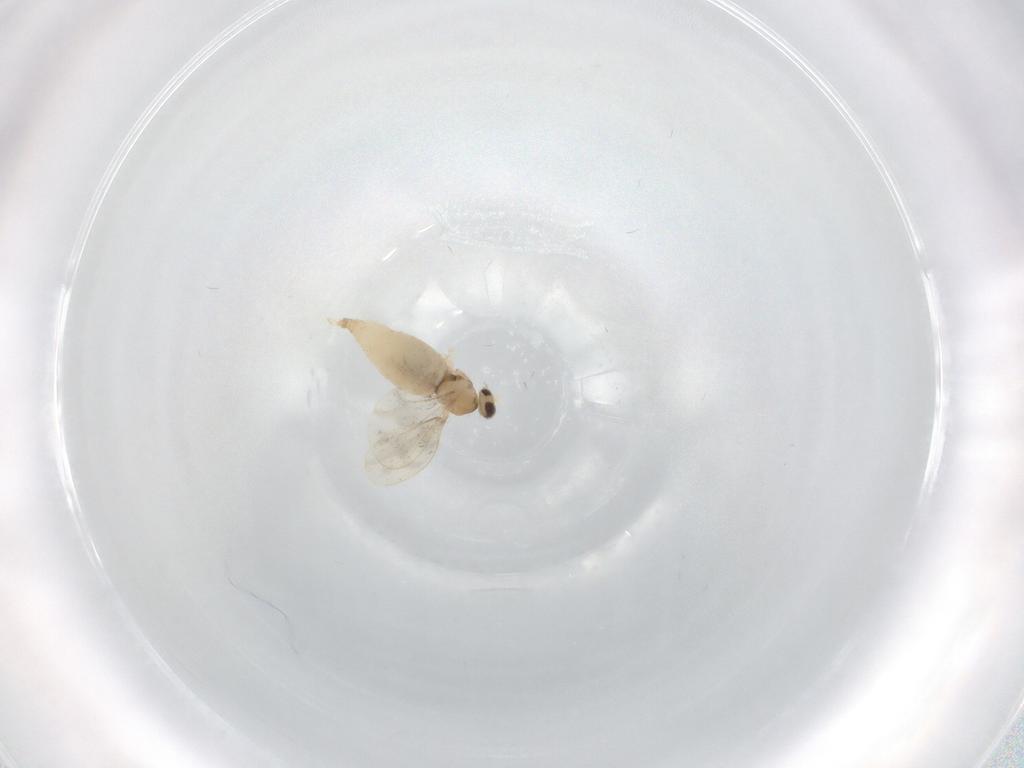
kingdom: Animalia
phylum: Arthropoda
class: Insecta
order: Diptera
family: Cecidomyiidae
